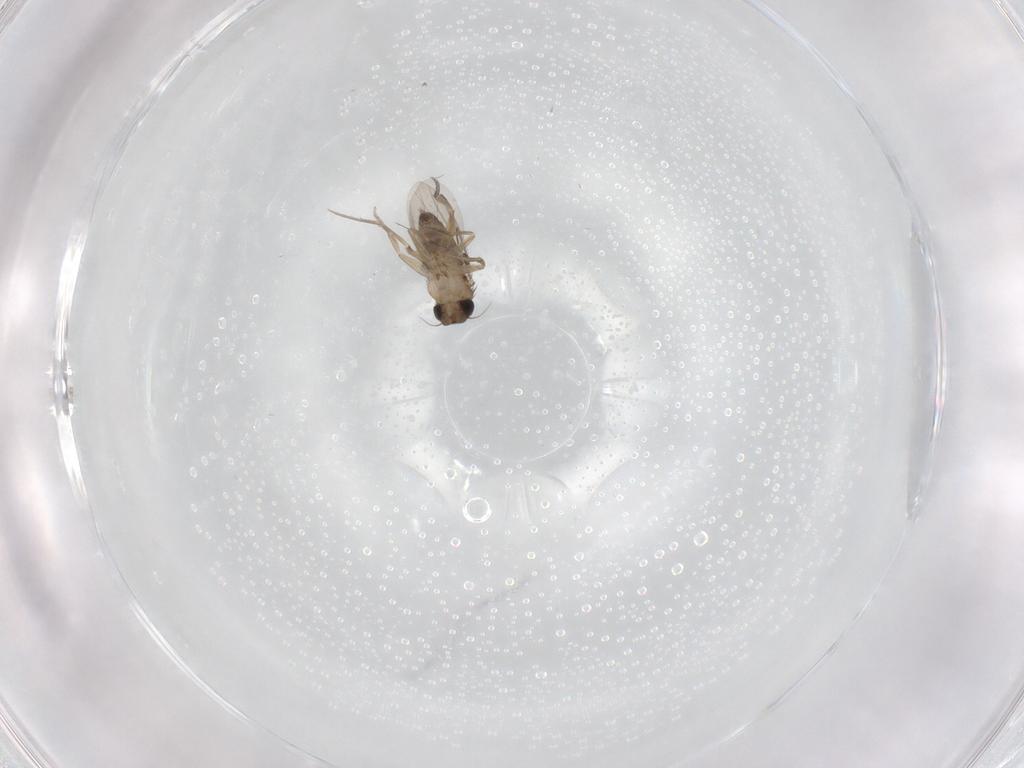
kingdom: Animalia
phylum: Arthropoda
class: Insecta
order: Diptera
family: Phoridae
